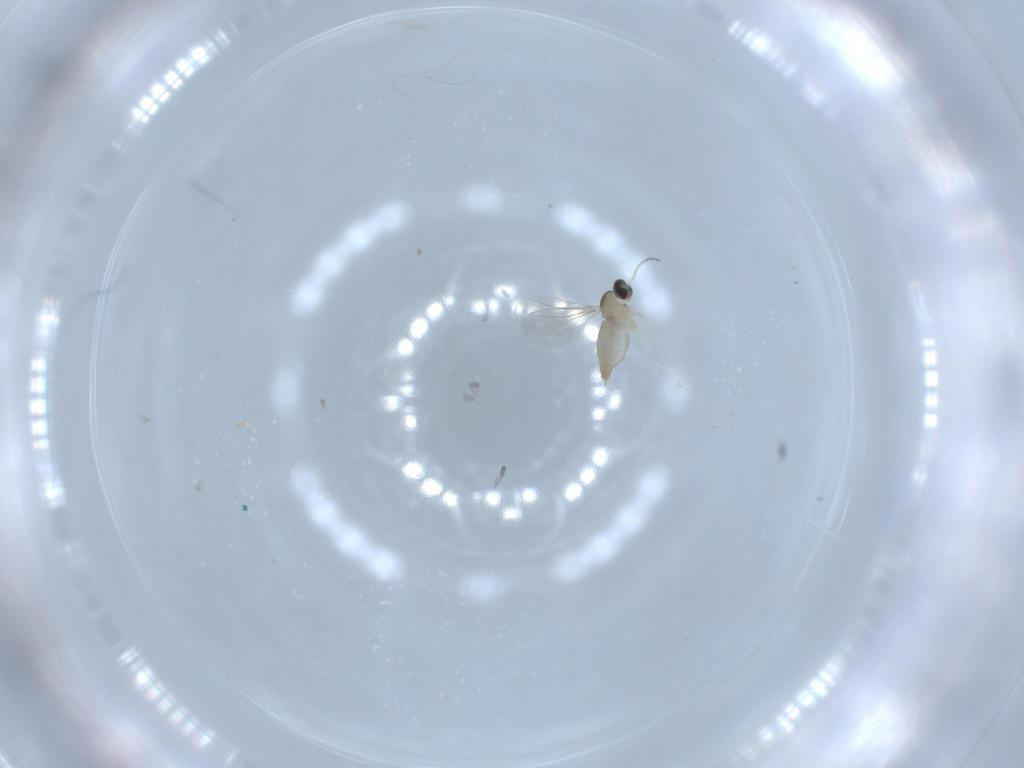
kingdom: Animalia
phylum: Arthropoda
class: Insecta
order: Diptera
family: Cecidomyiidae
